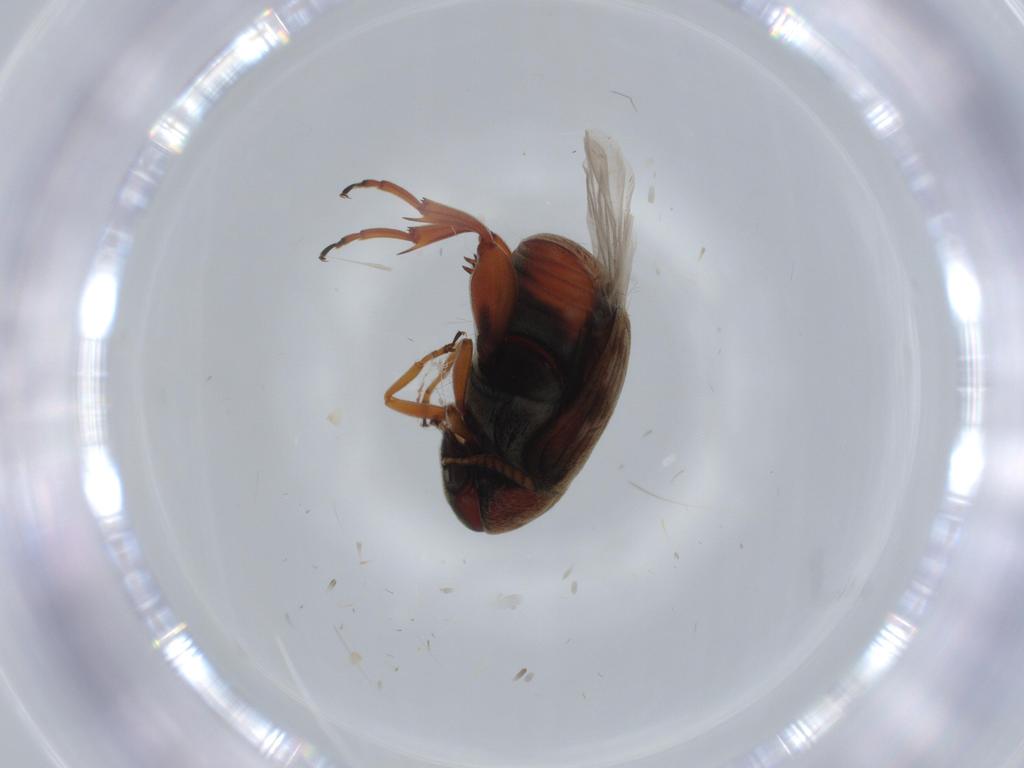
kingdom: Animalia
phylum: Arthropoda
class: Insecta
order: Coleoptera
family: Chrysomelidae
